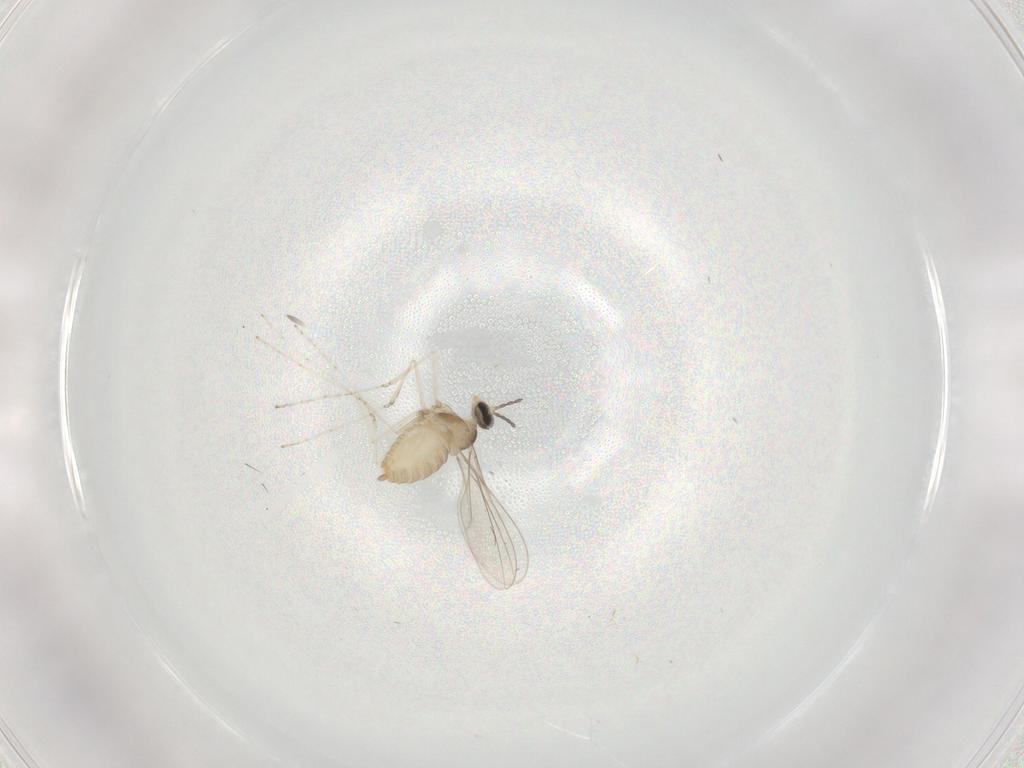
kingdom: Animalia
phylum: Arthropoda
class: Insecta
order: Diptera
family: Cecidomyiidae
